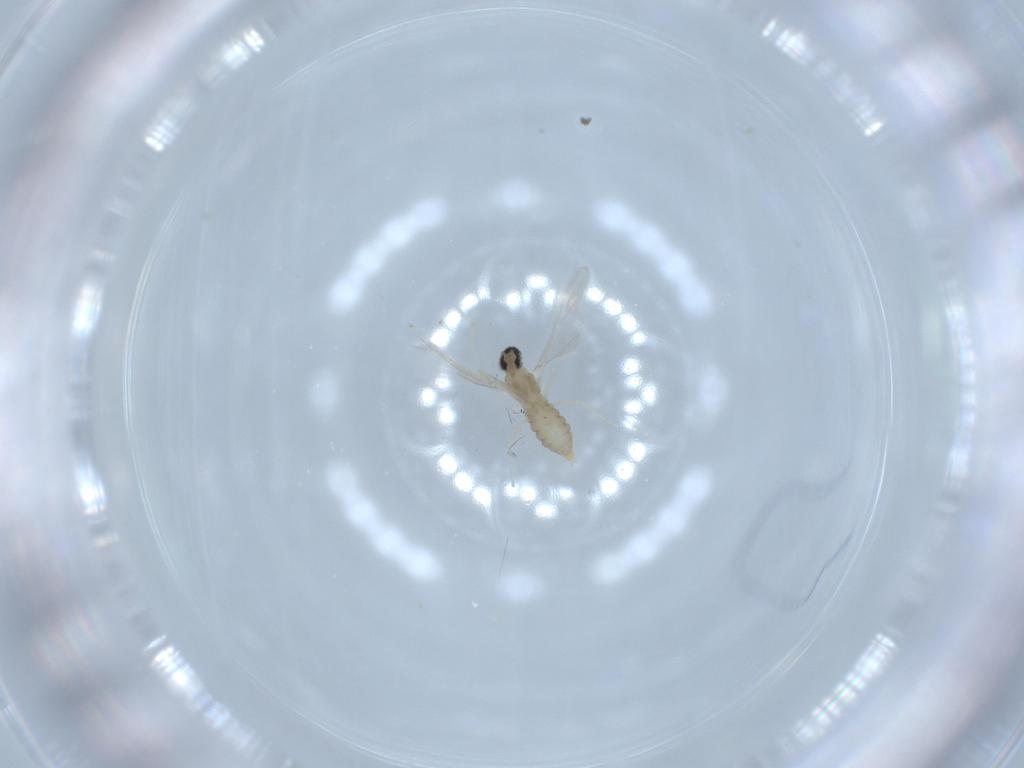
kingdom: Animalia
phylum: Arthropoda
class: Insecta
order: Diptera
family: Cecidomyiidae
